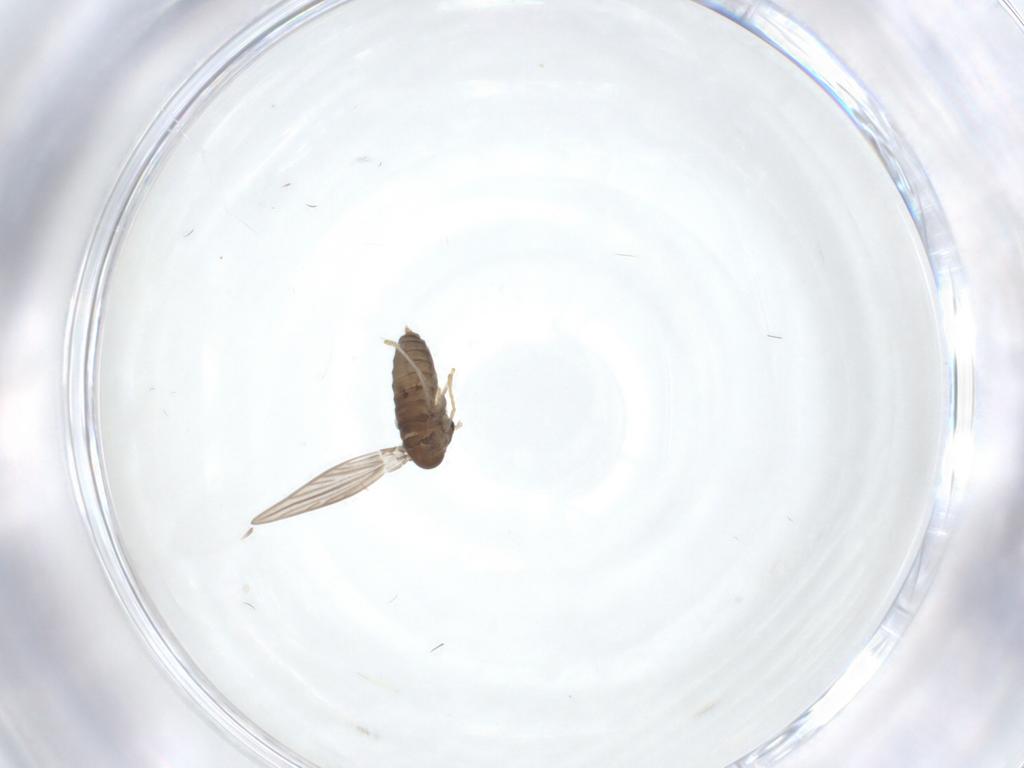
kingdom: Animalia
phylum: Arthropoda
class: Insecta
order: Diptera
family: Psychodidae
